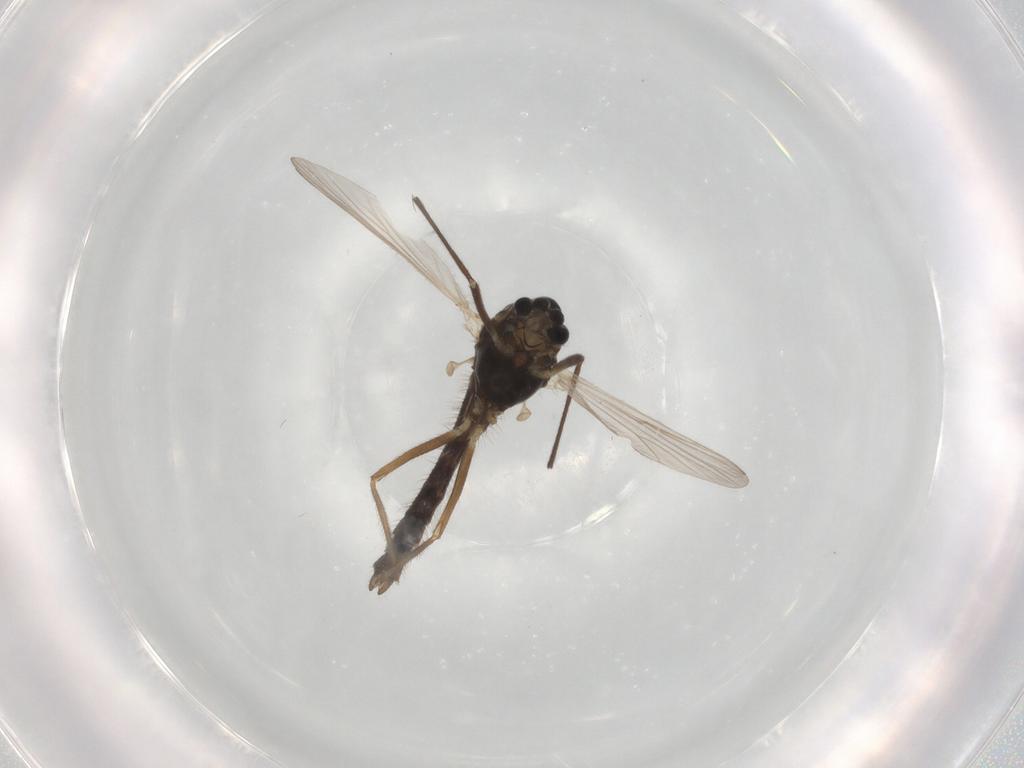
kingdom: Animalia
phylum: Arthropoda
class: Insecta
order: Diptera
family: Chironomidae
